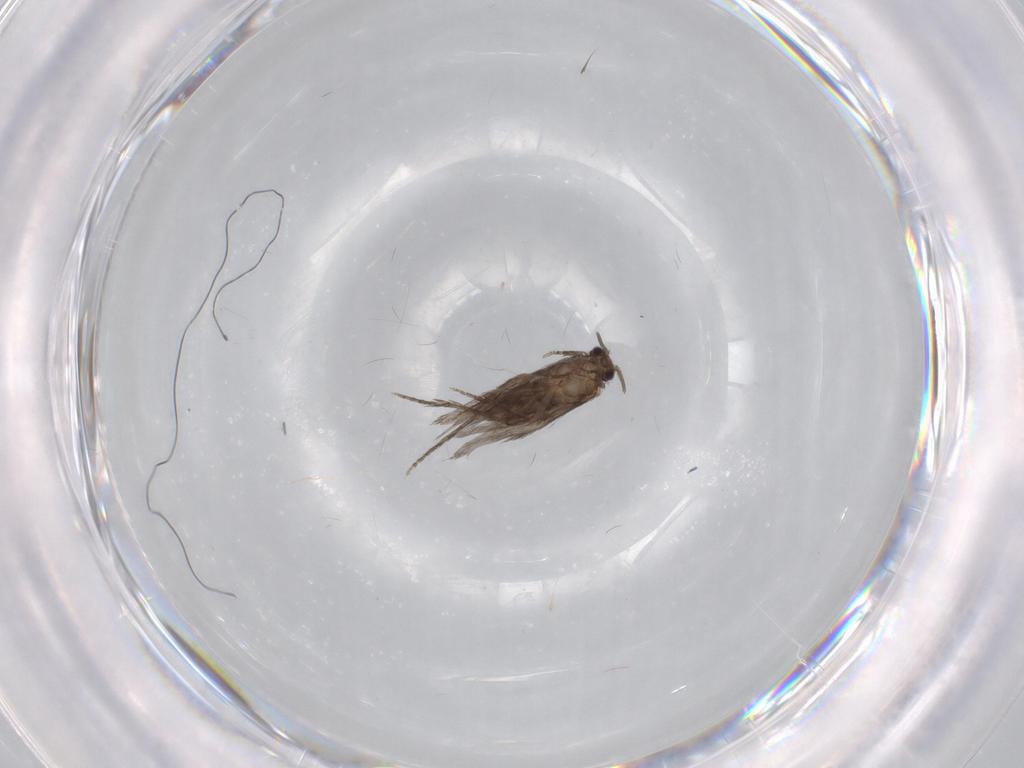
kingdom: Animalia
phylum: Arthropoda
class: Insecta
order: Trichoptera
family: Hydroptilidae
